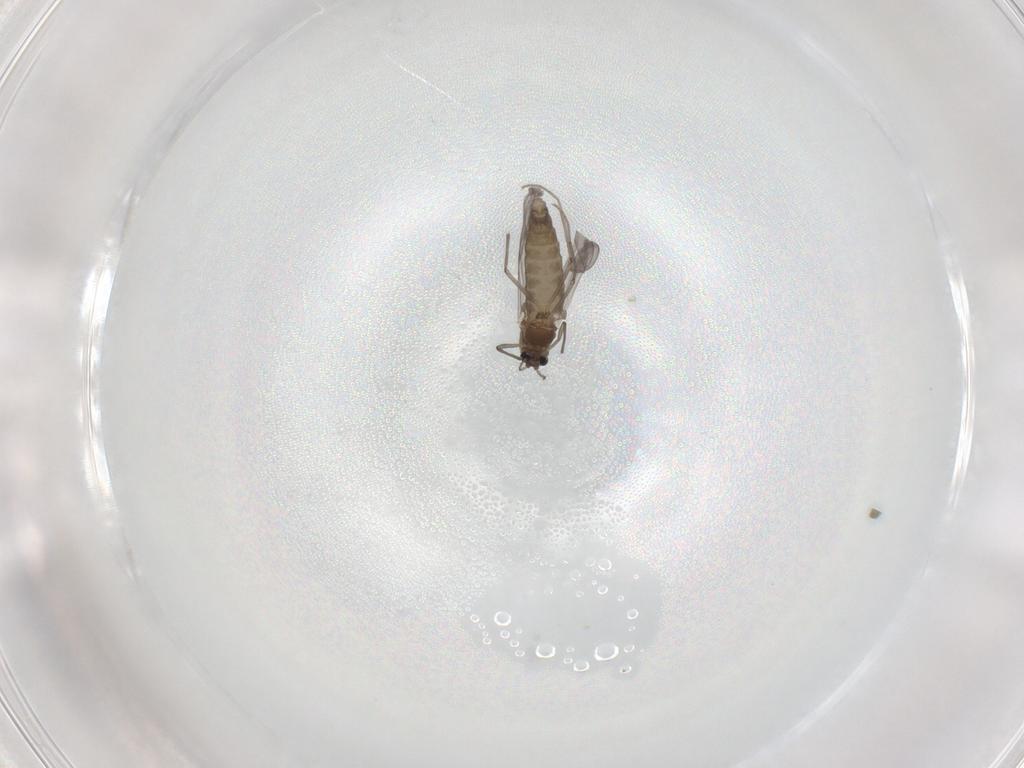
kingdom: Animalia
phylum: Arthropoda
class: Insecta
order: Diptera
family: Chironomidae
